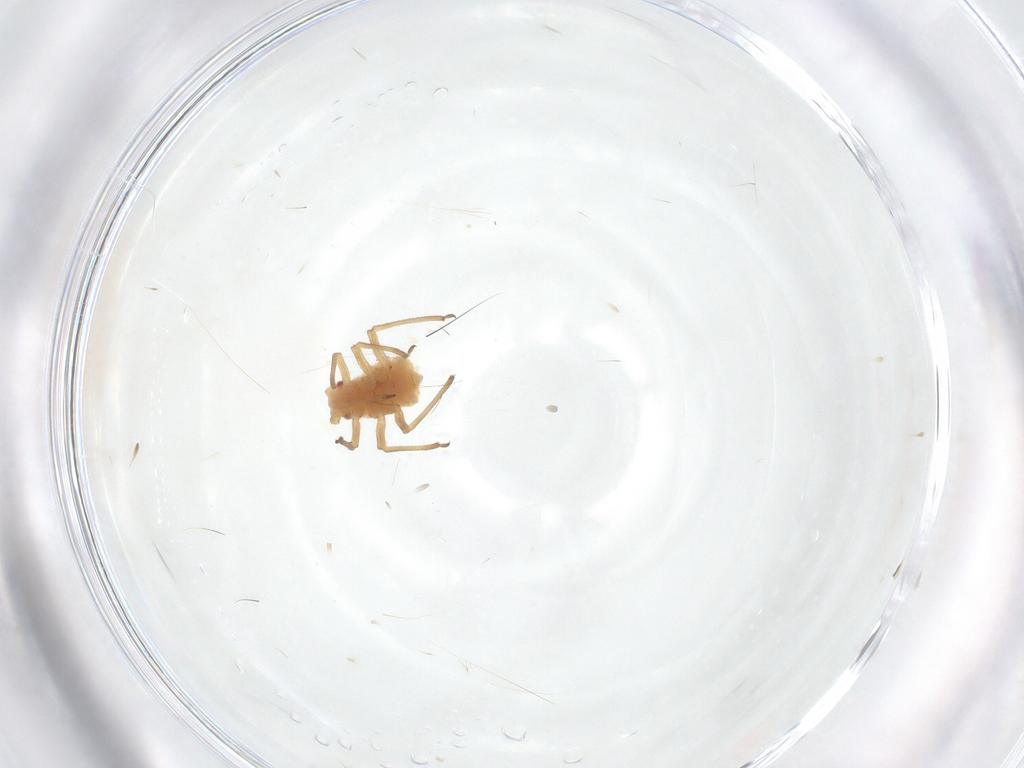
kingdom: Animalia
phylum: Arthropoda
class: Insecta
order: Hemiptera
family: Aphididae
